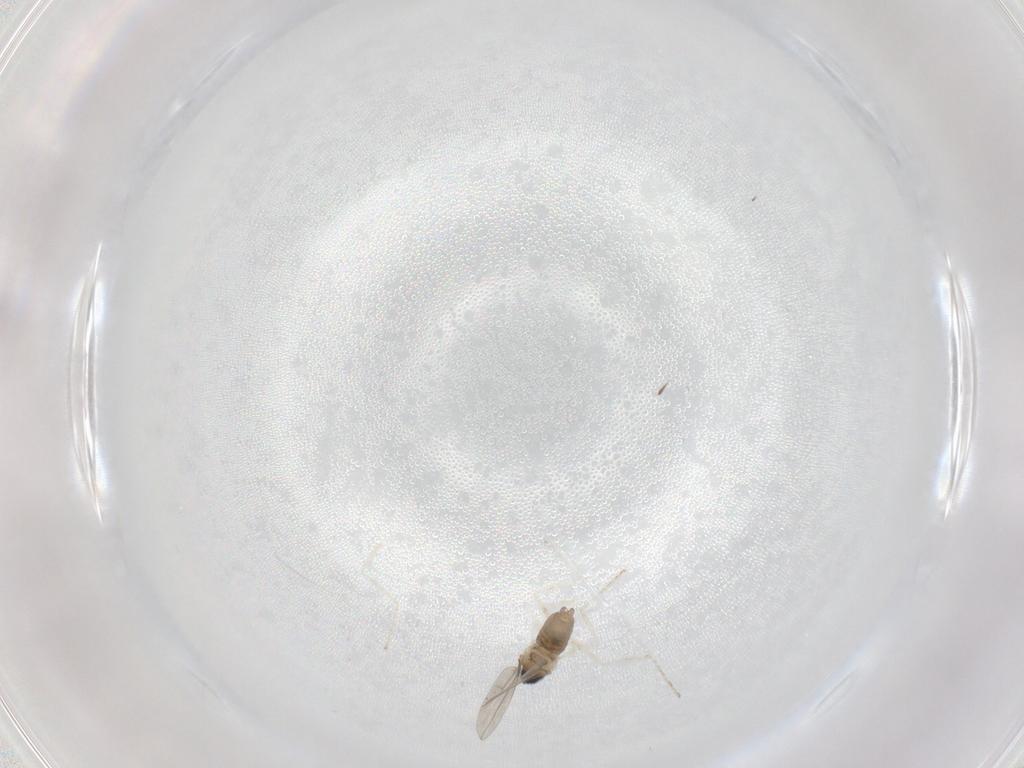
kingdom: Animalia
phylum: Arthropoda
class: Insecta
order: Diptera
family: Cecidomyiidae
